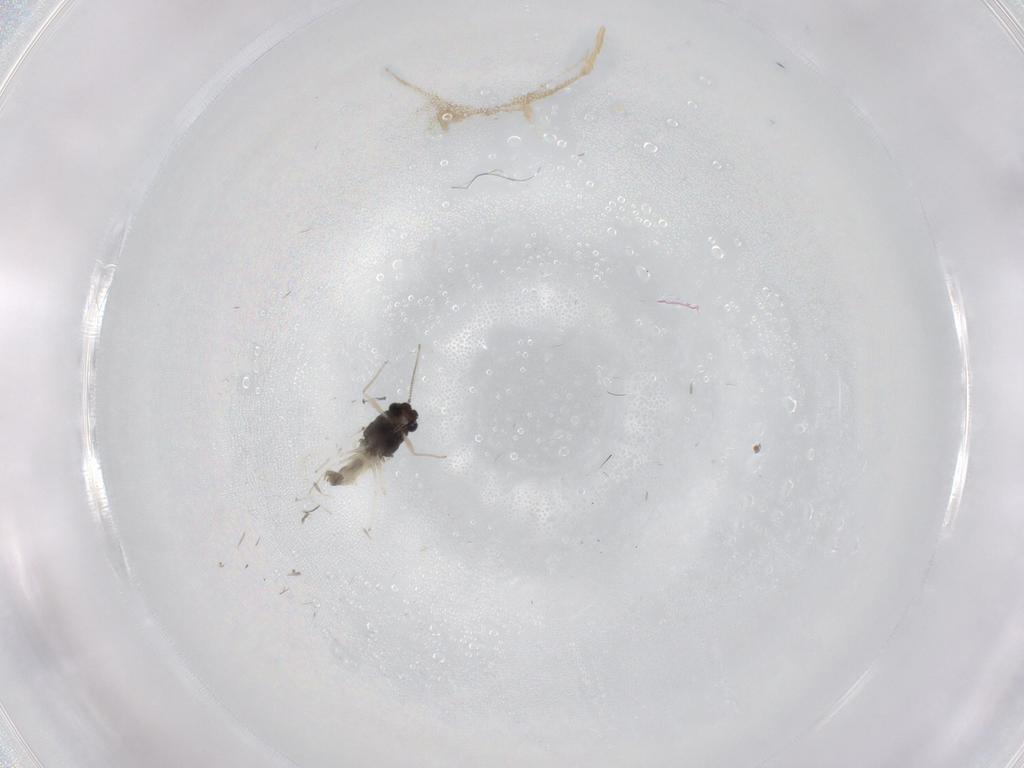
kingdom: Animalia
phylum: Arthropoda
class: Insecta
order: Diptera
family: Chironomidae
